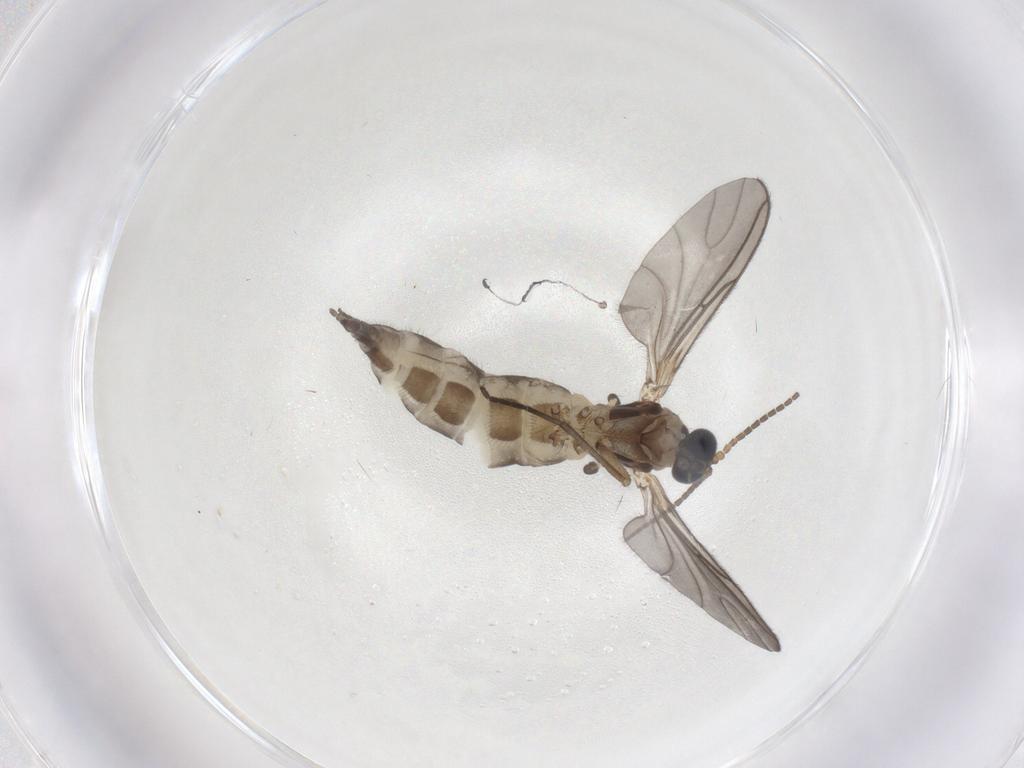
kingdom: Animalia
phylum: Arthropoda
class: Insecta
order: Diptera
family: Sciaridae
